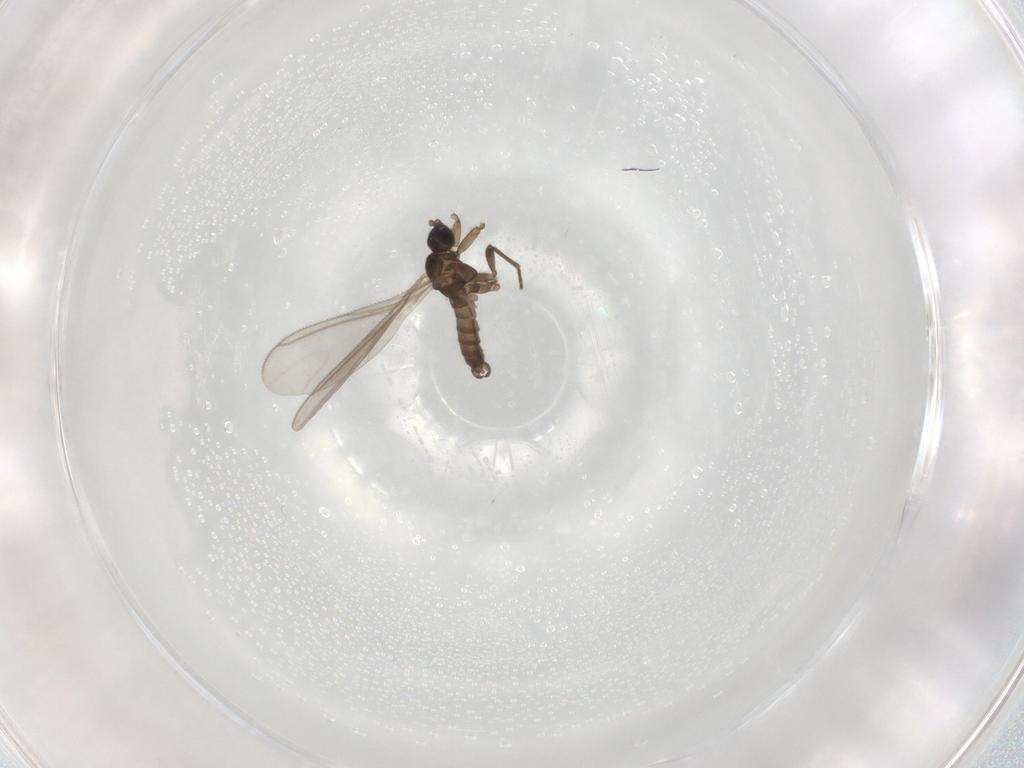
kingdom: Animalia
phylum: Arthropoda
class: Insecta
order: Diptera
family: Sciaridae
